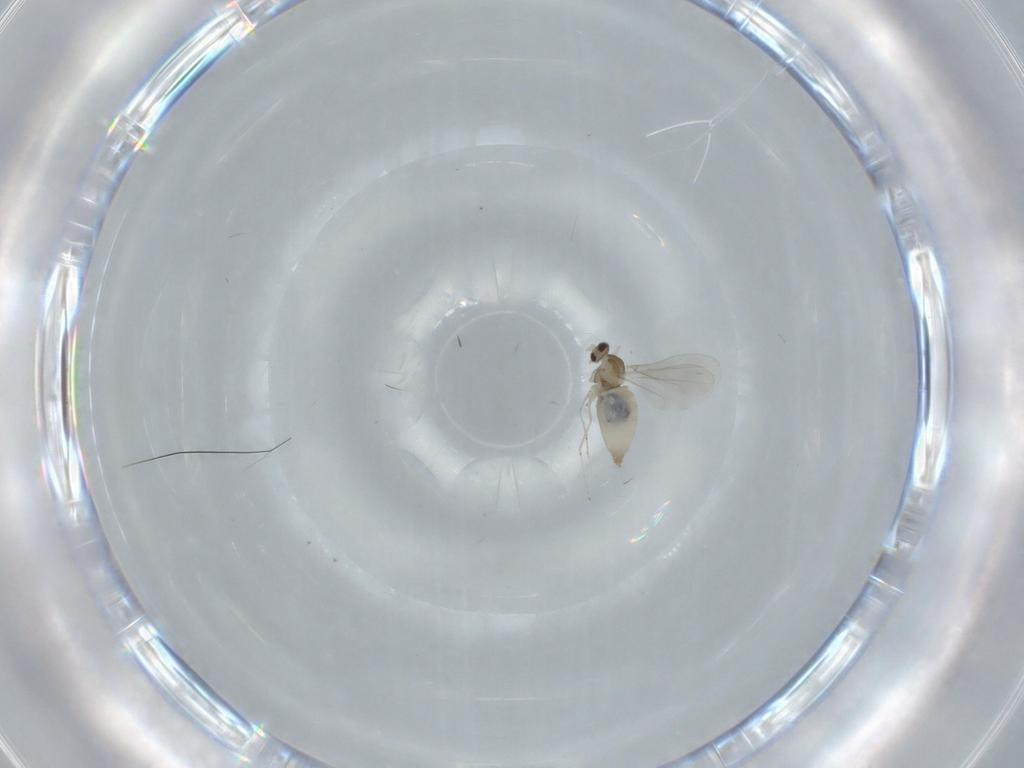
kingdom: Animalia
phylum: Arthropoda
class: Insecta
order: Diptera
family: Cecidomyiidae
